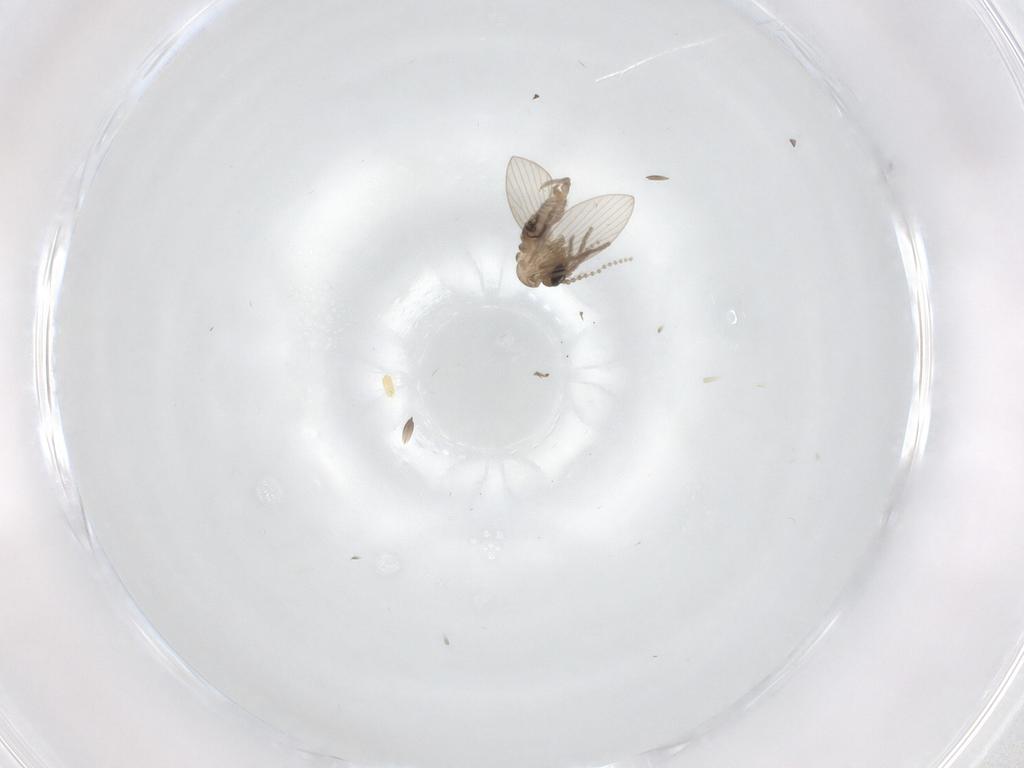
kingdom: Animalia
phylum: Arthropoda
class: Insecta
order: Diptera
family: Psychodidae
